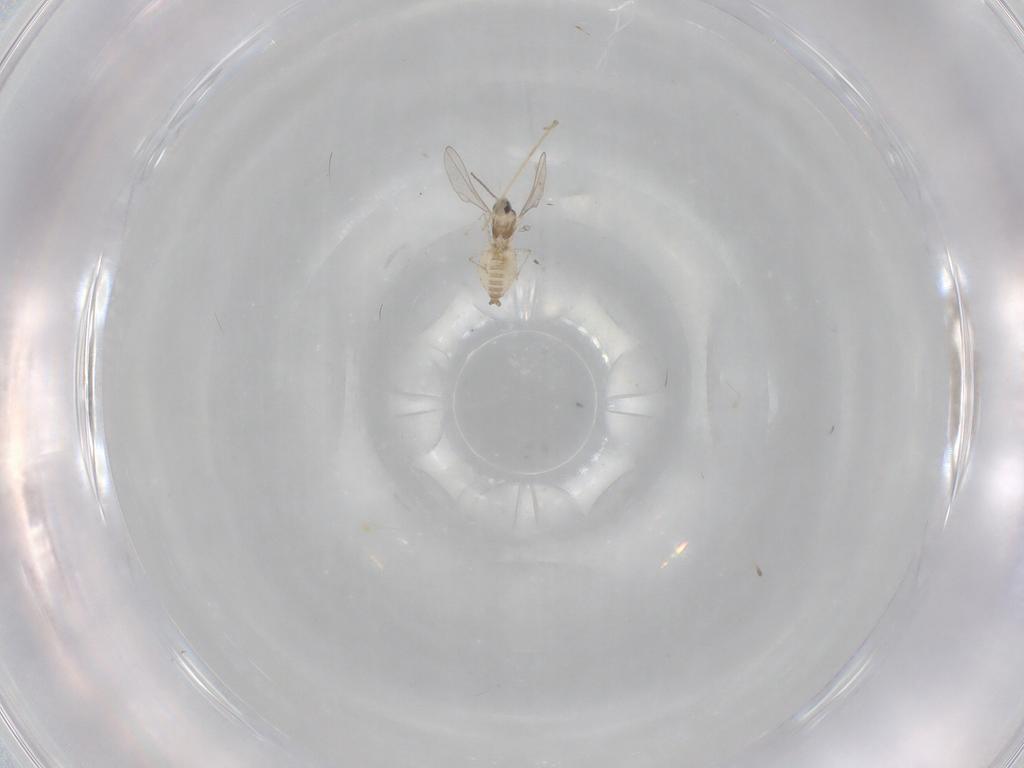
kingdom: Animalia
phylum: Arthropoda
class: Insecta
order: Diptera
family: Cecidomyiidae
